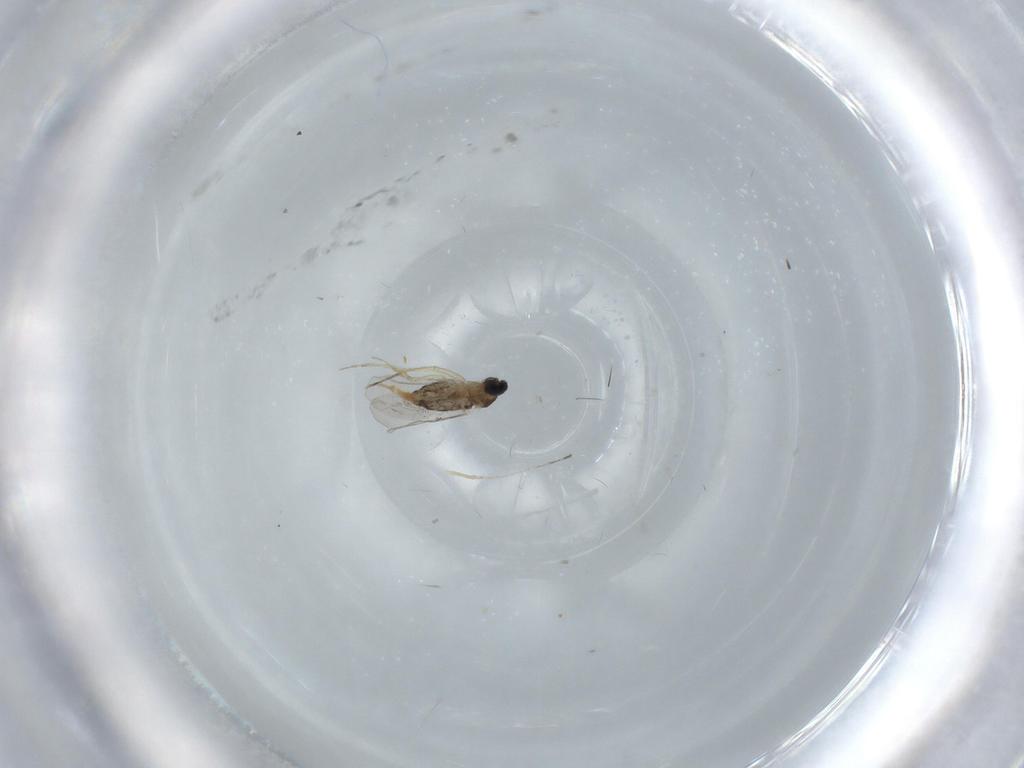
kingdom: Animalia
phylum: Arthropoda
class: Insecta
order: Diptera
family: Cecidomyiidae
